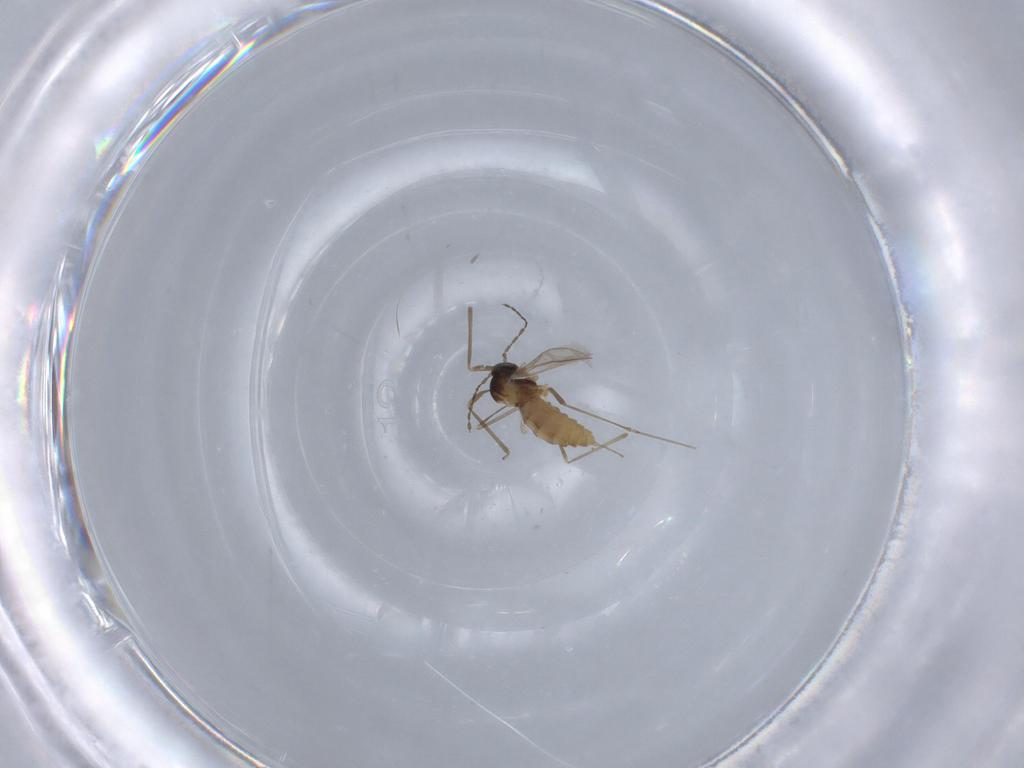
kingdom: Animalia
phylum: Arthropoda
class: Insecta
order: Diptera
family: Cecidomyiidae
